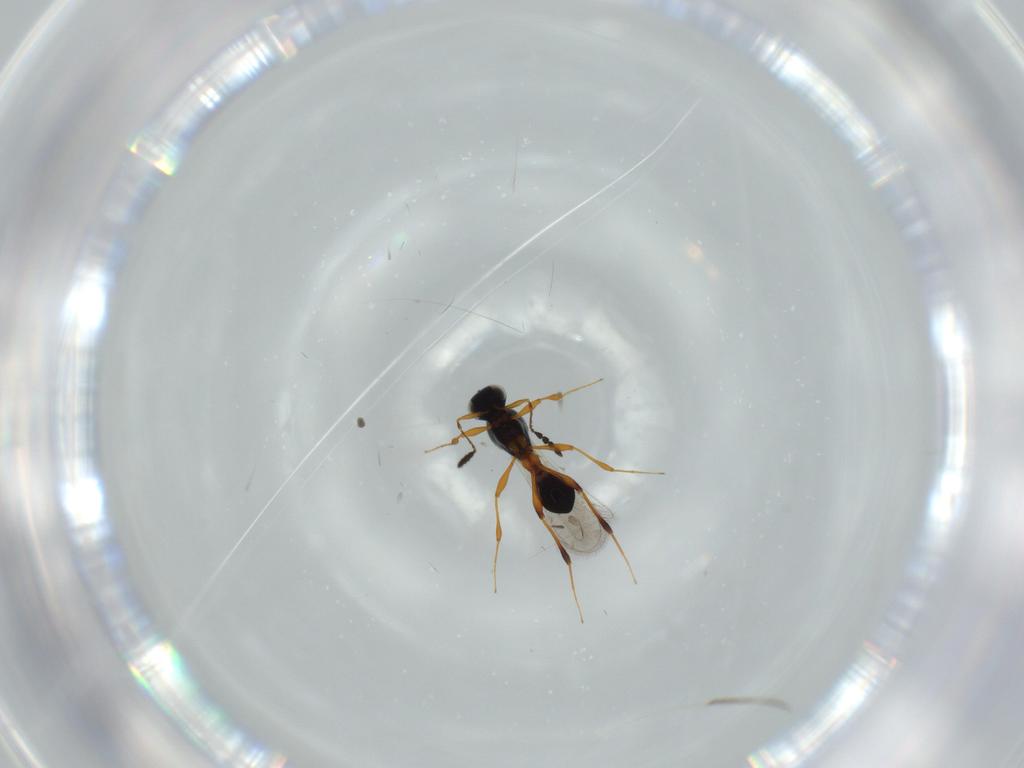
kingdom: Animalia
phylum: Arthropoda
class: Insecta
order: Hymenoptera
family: Platygastridae
